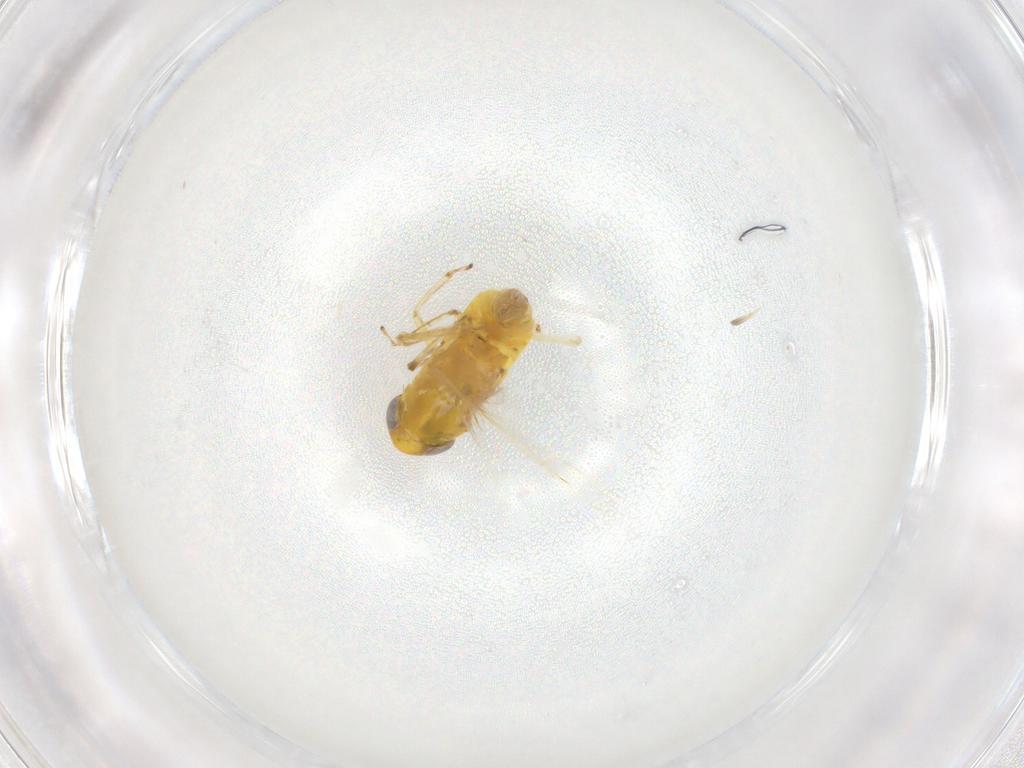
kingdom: Animalia
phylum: Arthropoda
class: Insecta
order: Hemiptera
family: Cicadellidae
